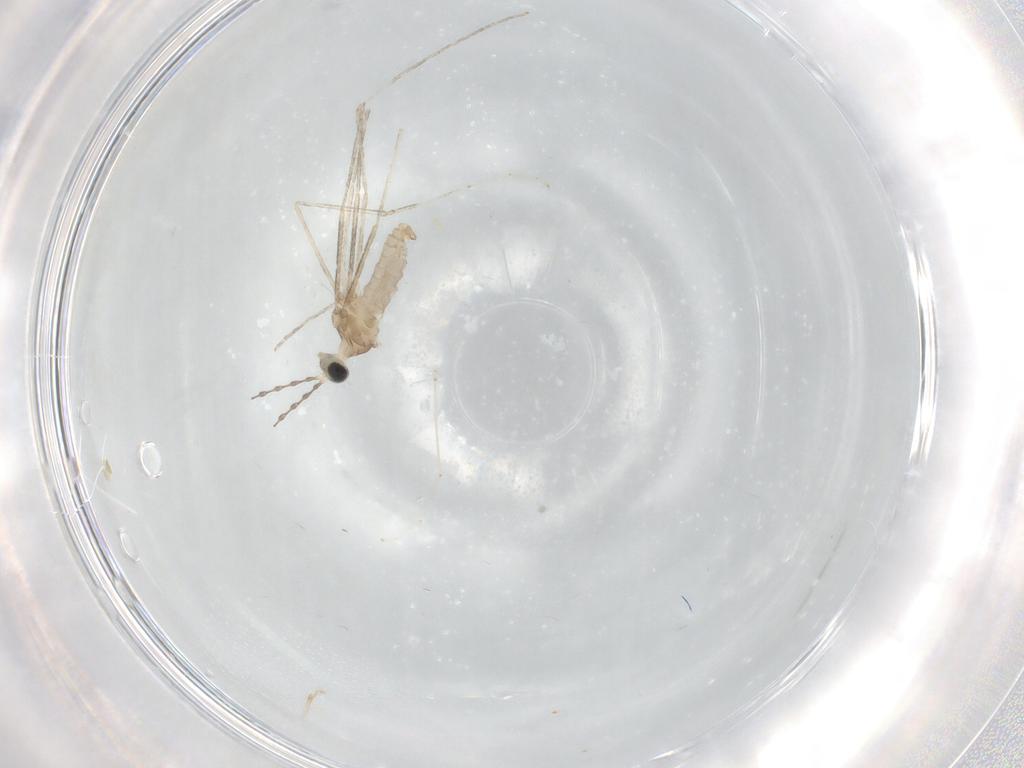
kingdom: Animalia
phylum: Arthropoda
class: Insecta
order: Diptera
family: Cecidomyiidae
